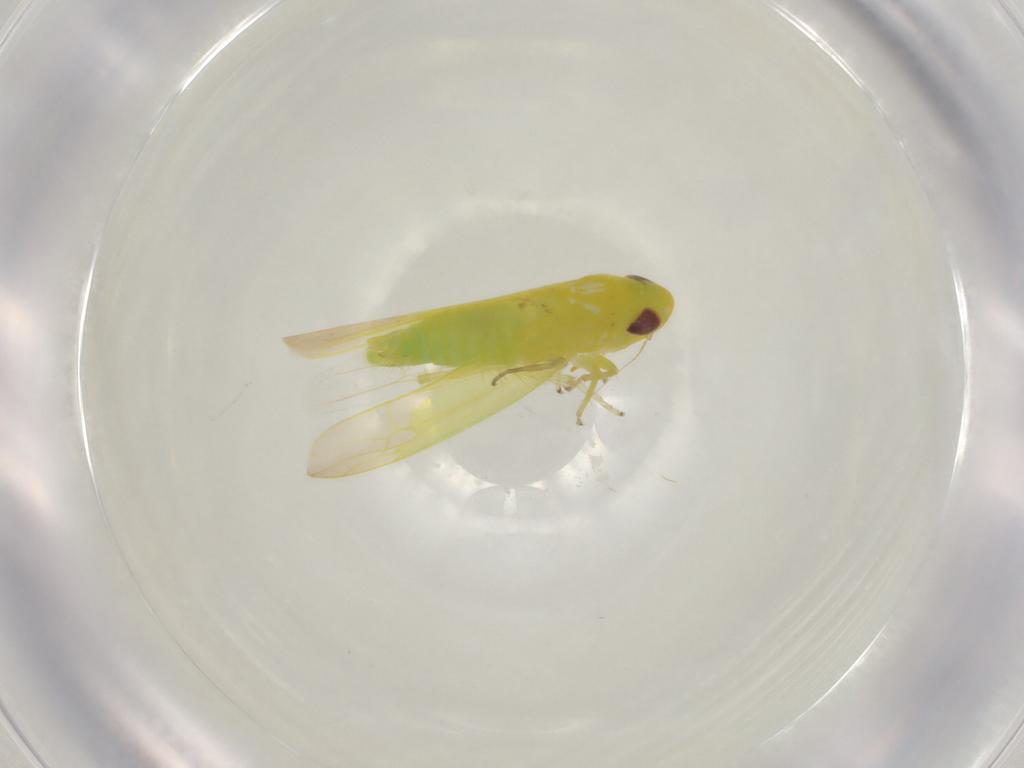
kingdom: Animalia
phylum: Arthropoda
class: Insecta
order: Hemiptera
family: Cicadellidae
